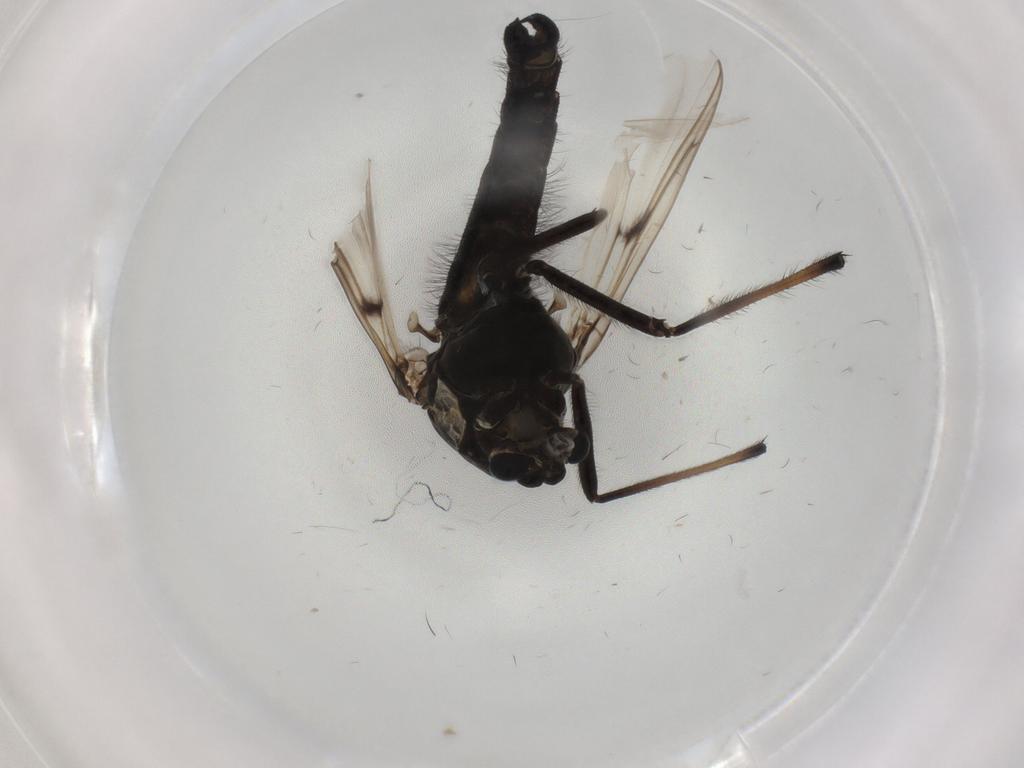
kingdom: Animalia
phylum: Arthropoda
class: Insecta
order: Diptera
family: Chironomidae
